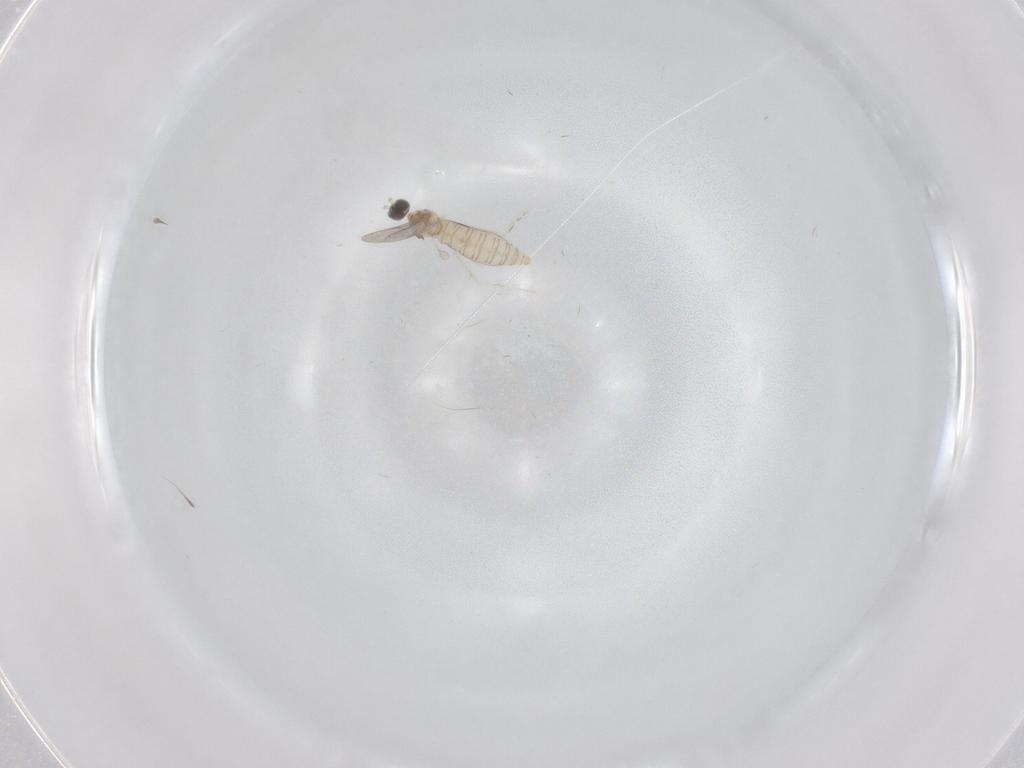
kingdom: Animalia
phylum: Arthropoda
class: Insecta
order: Diptera
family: Cecidomyiidae
